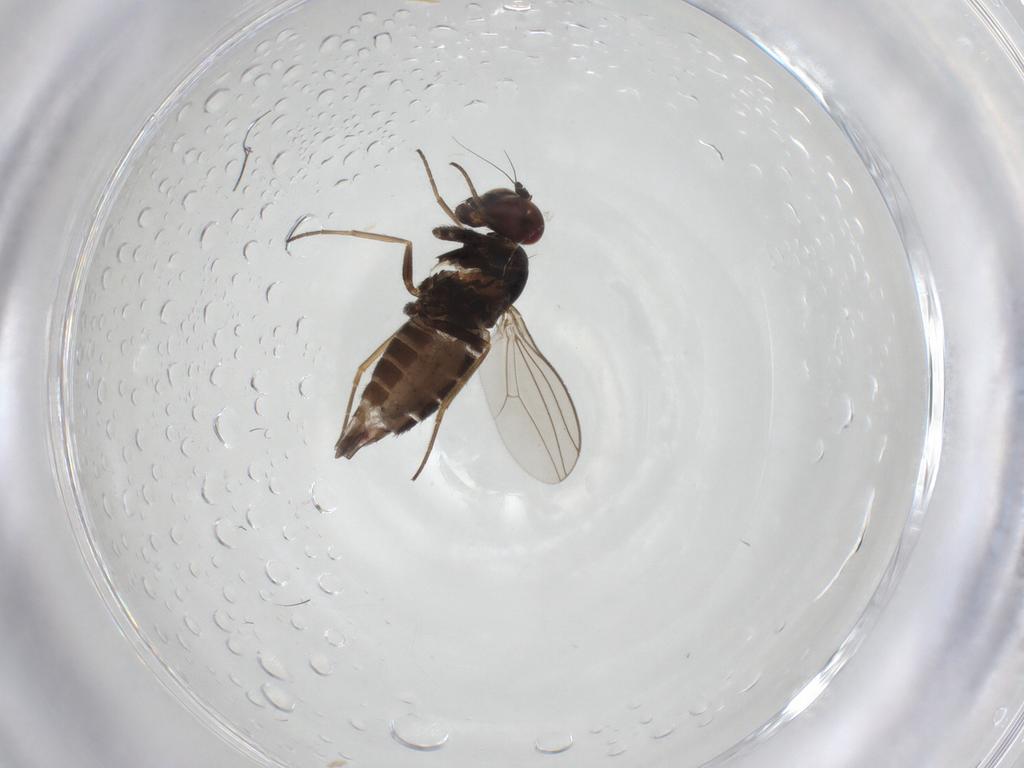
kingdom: Animalia
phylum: Arthropoda
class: Insecta
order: Diptera
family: Dolichopodidae
